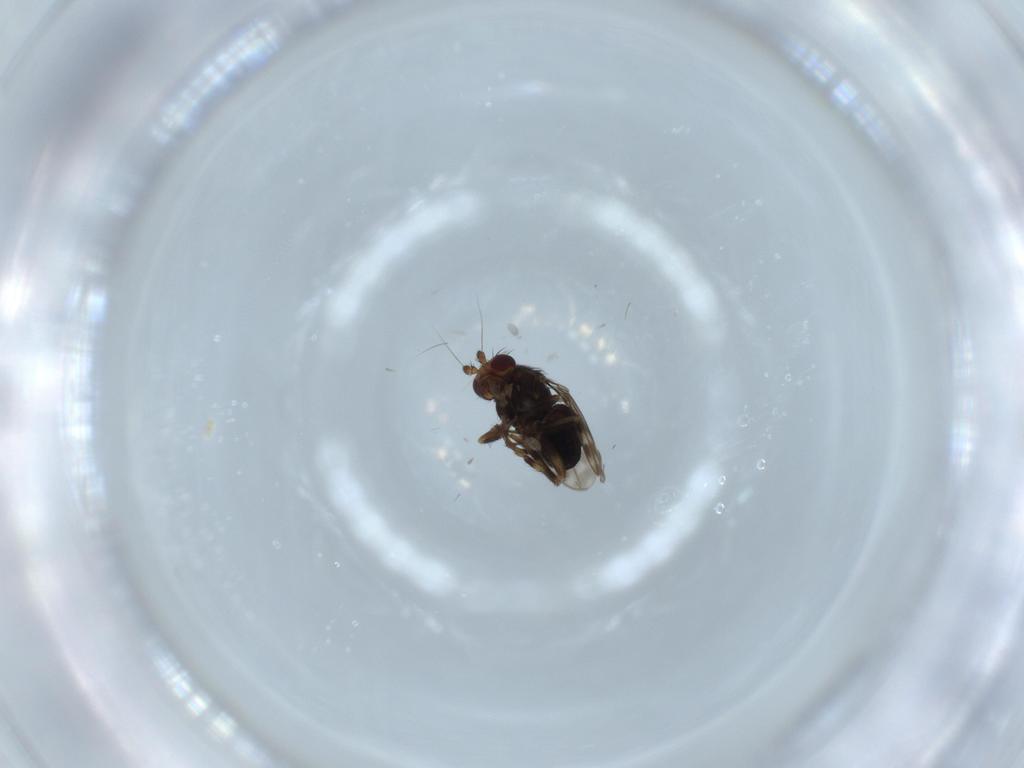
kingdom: Animalia
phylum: Arthropoda
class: Insecta
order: Diptera
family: Sphaeroceridae
